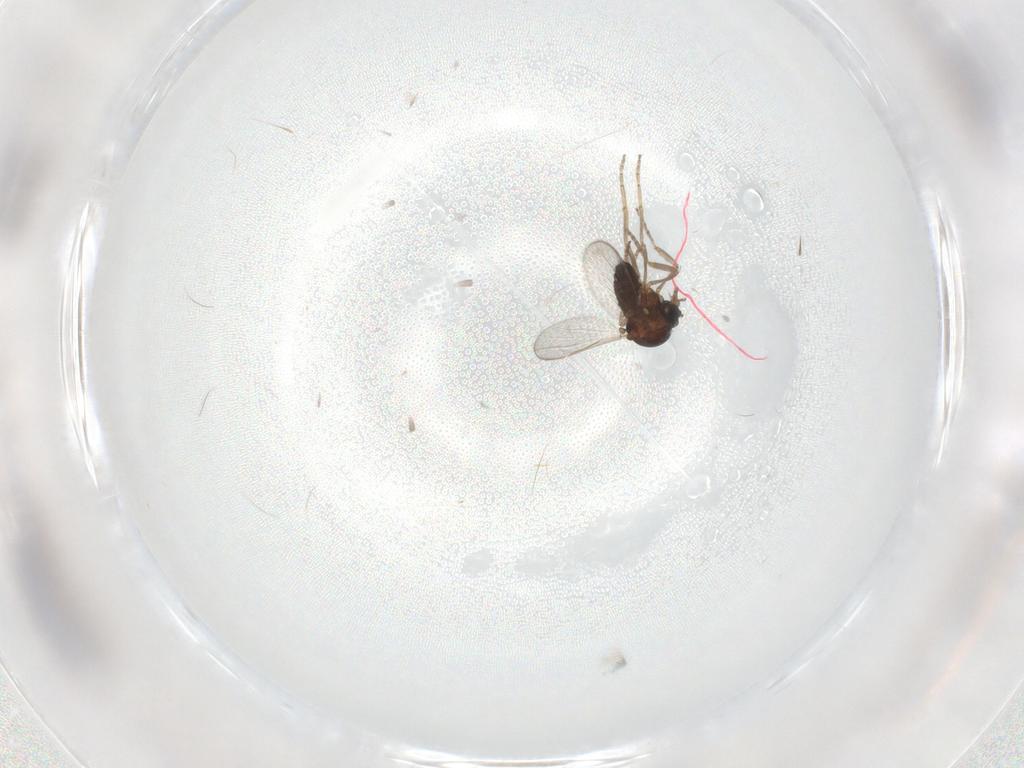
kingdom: Animalia
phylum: Arthropoda
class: Insecta
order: Diptera
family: Ceratopogonidae
